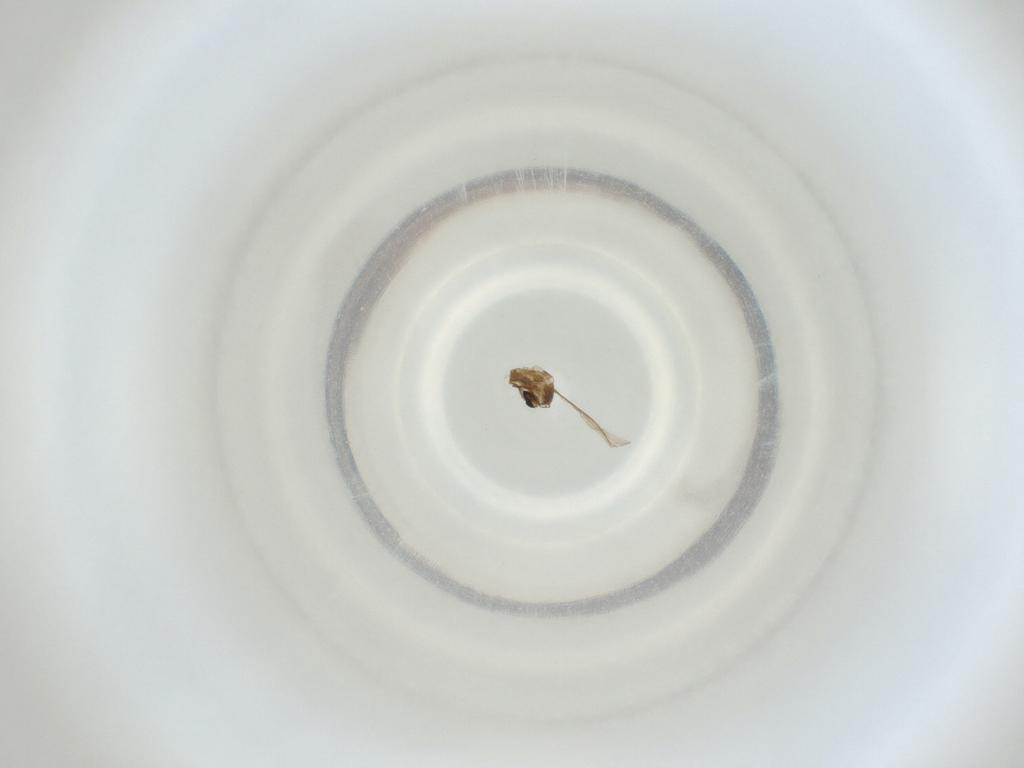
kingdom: Animalia
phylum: Arthropoda
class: Insecta
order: Diptera
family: Cecidomyiidae
